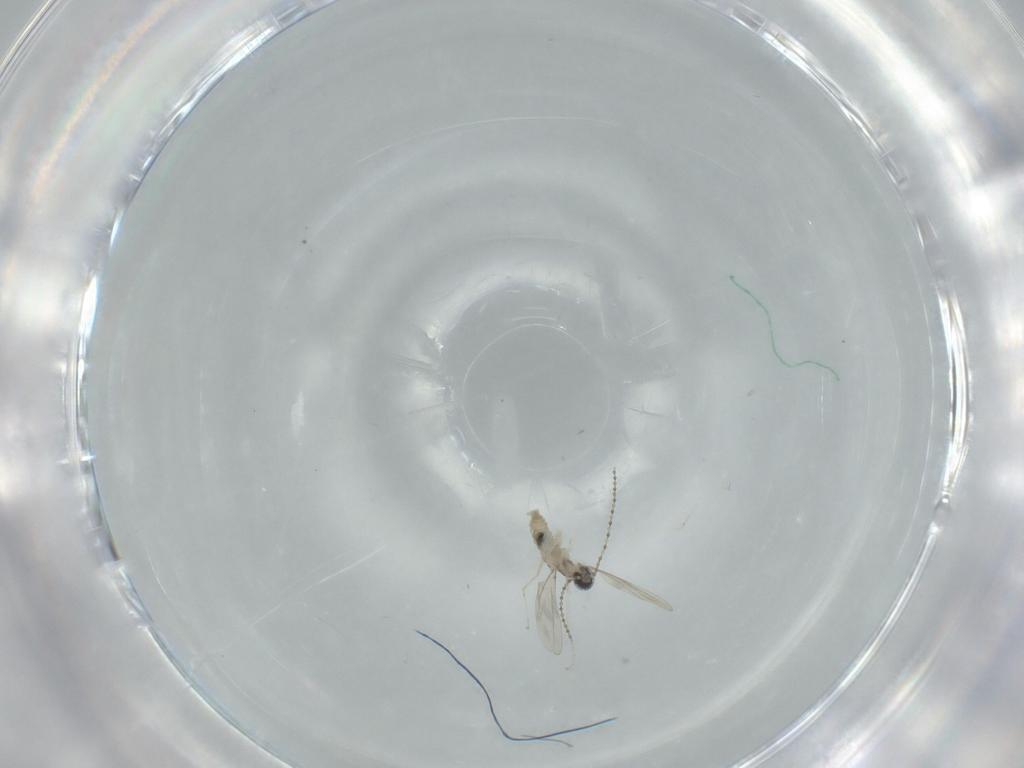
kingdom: Animalia
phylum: Arthropoda
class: Insecta
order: Diptera
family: Cecidomyiidae
